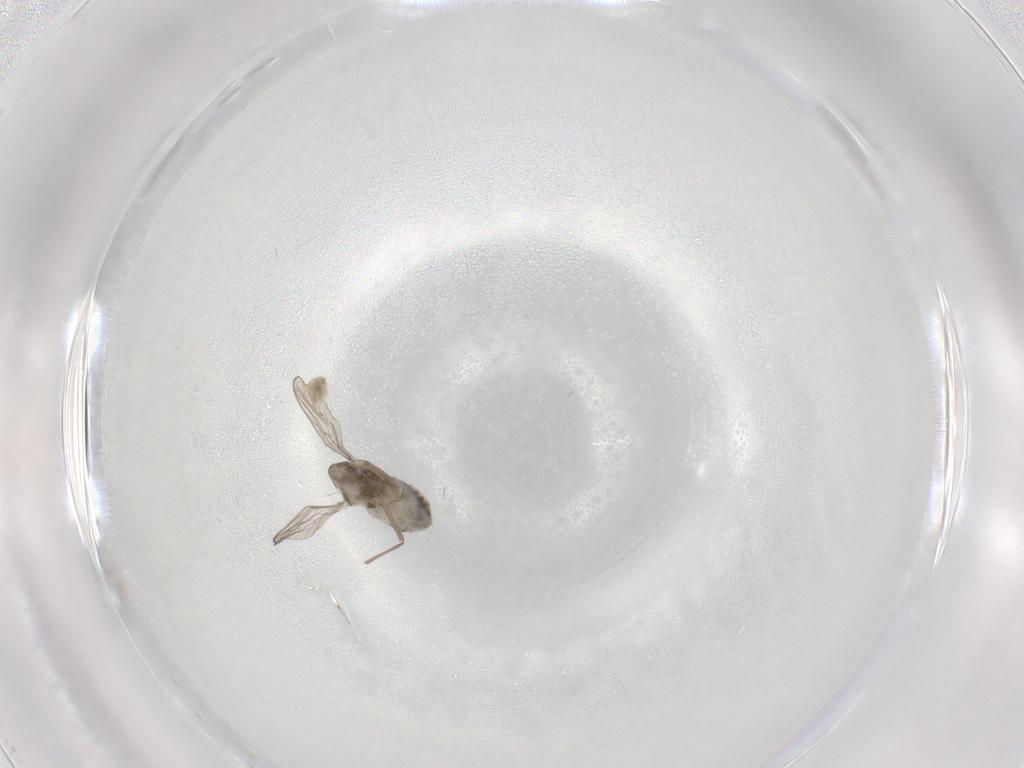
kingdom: Animalia
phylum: Arthropoda
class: Insecta
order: Diptera
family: Chironomidae
